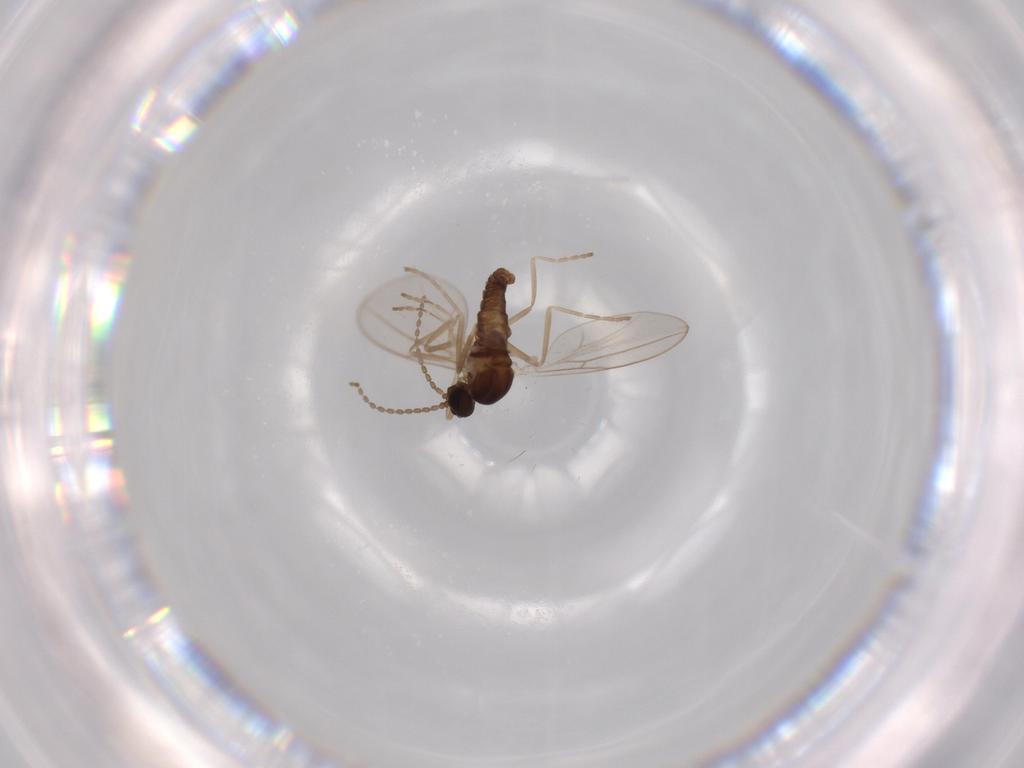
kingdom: Animalia
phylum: Arthropoda
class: Insecta
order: Diptera
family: Cecidomyiidae
